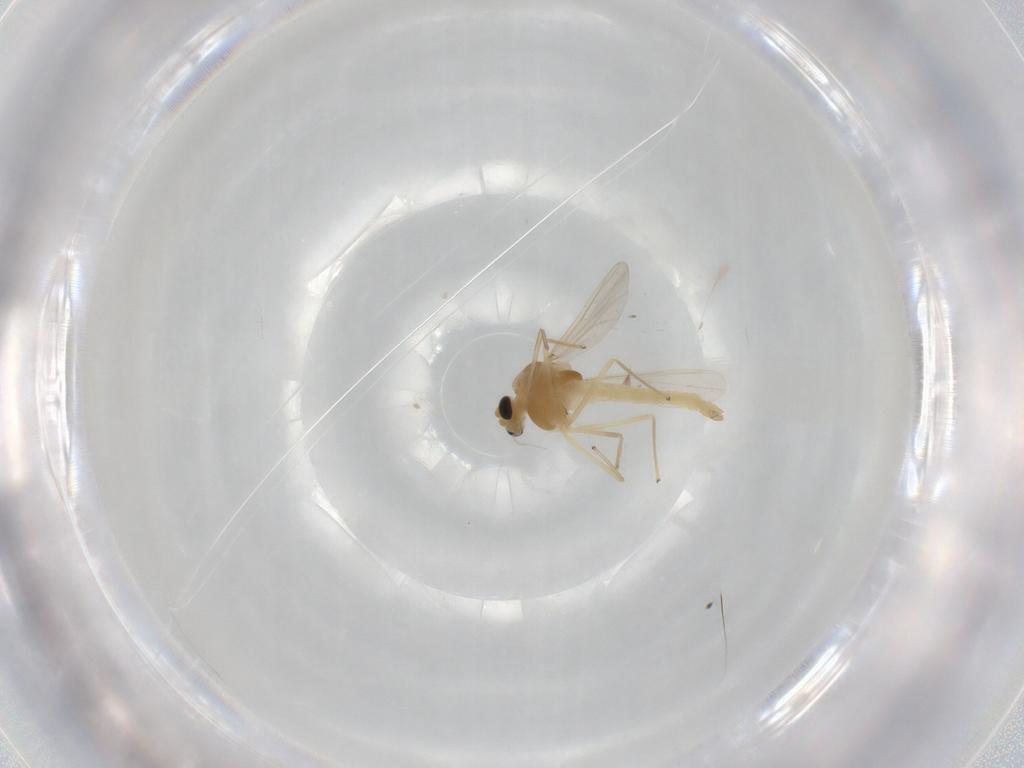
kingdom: Animalia
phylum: Arthropoda
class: Insecta
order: Diptera
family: Chironomidae
